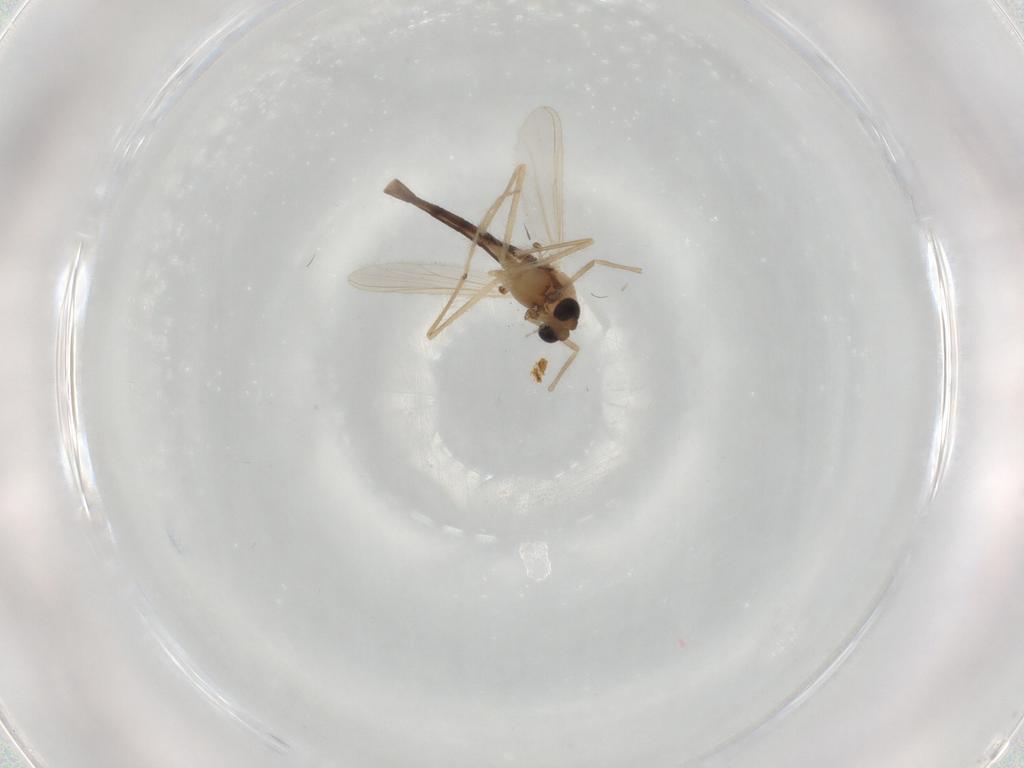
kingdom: Animalia
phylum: Arthropoda
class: Insecta
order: Diptera
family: Chironomidae
